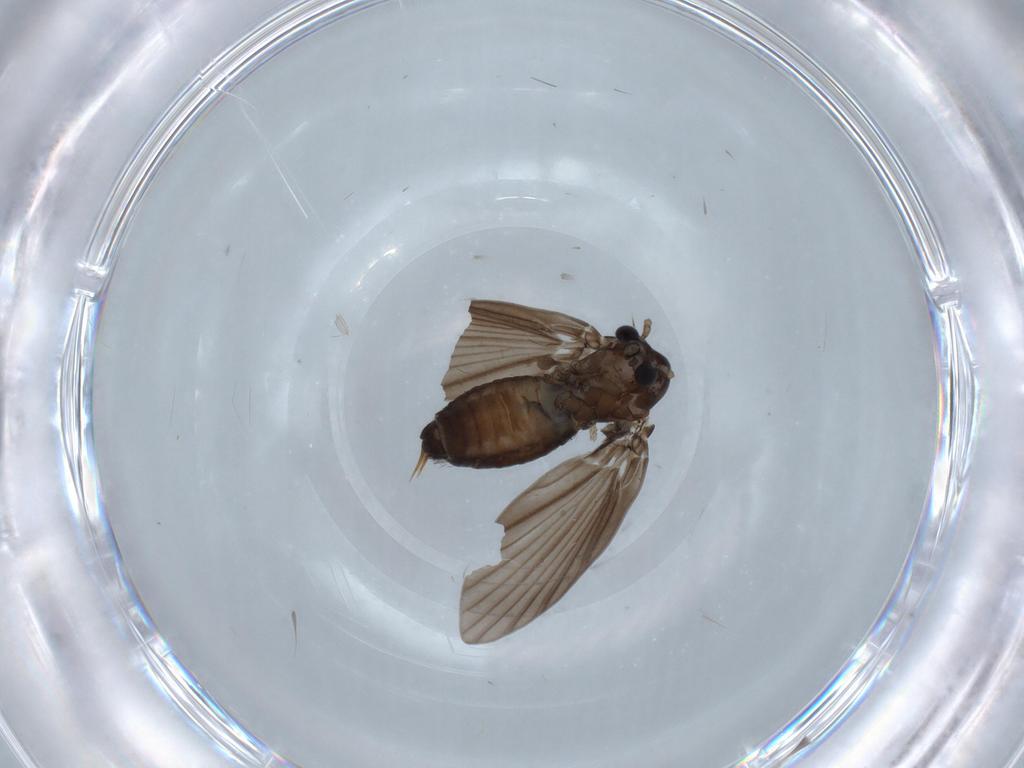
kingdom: Animalia
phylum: Arthropoda
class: Insecta
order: Diptera
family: Psychodidae
